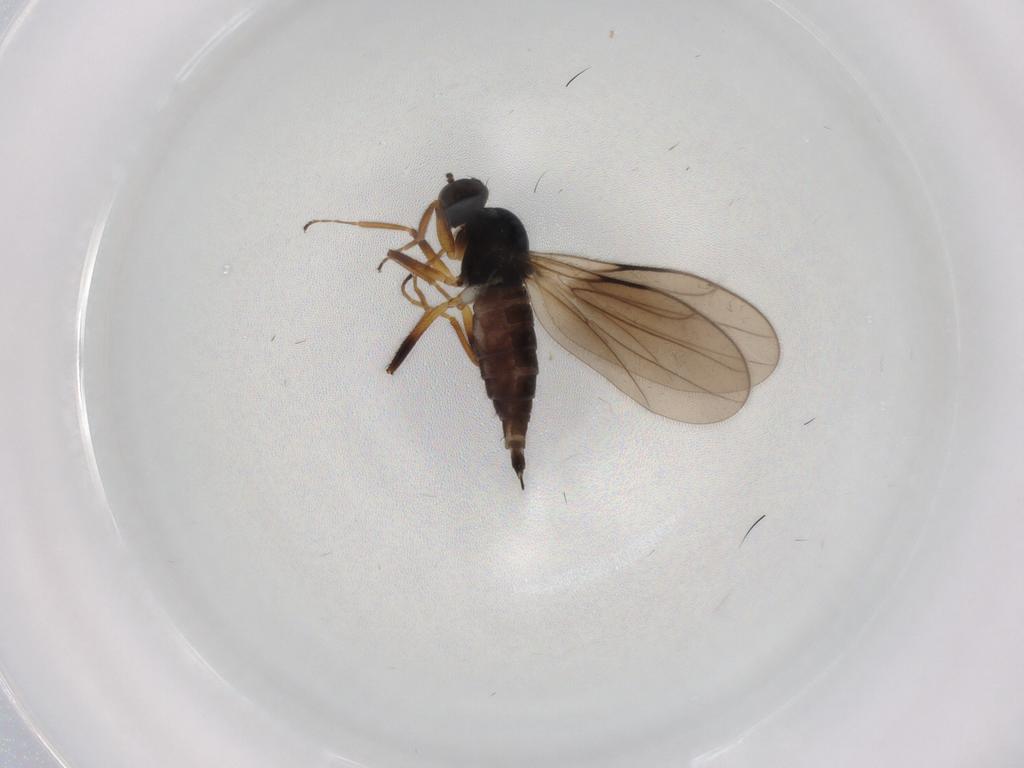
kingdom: Animalia
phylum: Arthropoda
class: Insecta
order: Diptera
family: Hybotidae
